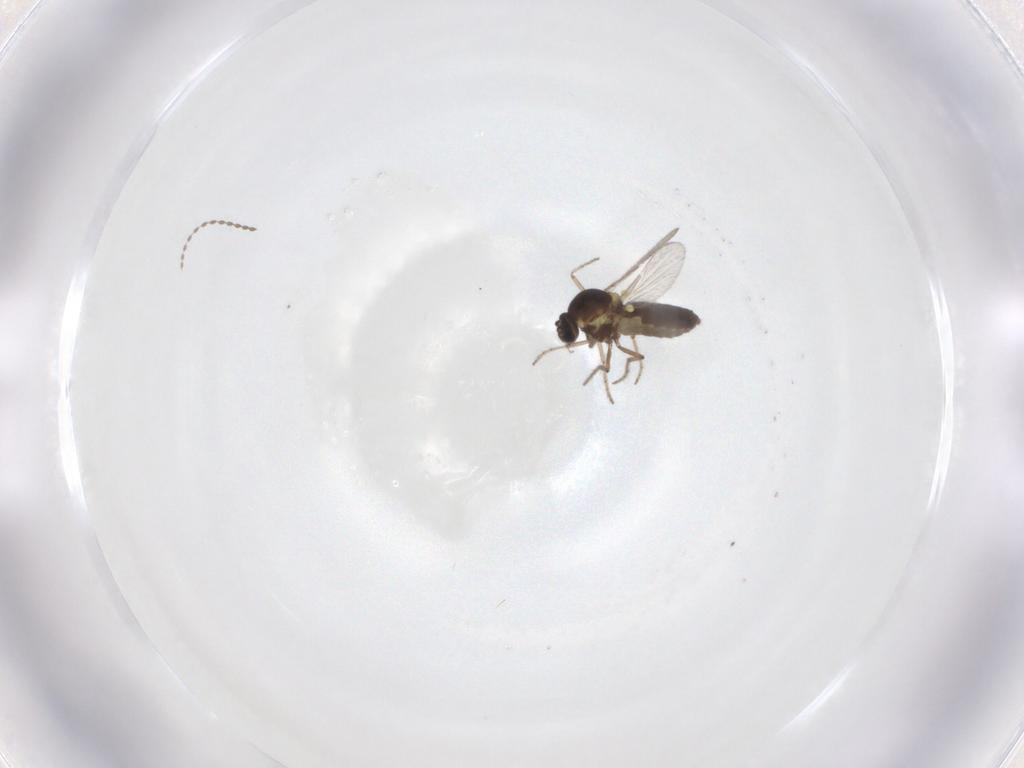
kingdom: Animalia
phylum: Arthropoda
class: Insecta
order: Diptera
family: Ceratopogonidae
